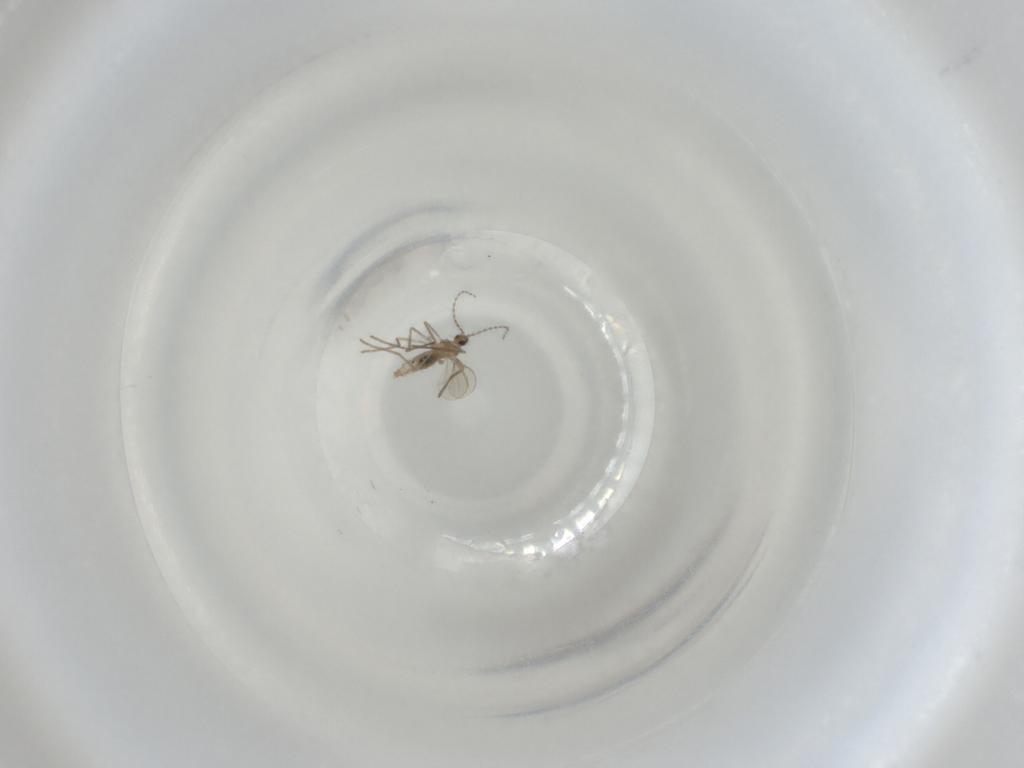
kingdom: Animalia
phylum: Arthropoda
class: Insecta
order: Diptera
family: Cecidomyiidae
